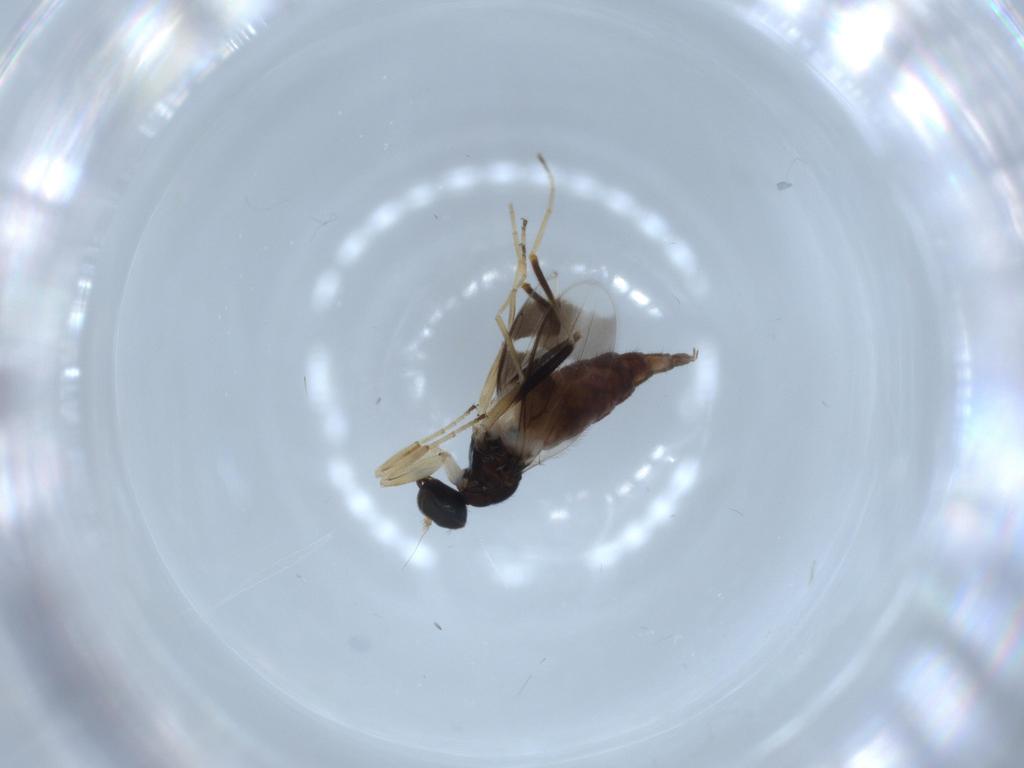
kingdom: Animalia
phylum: Arthropoda
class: Insecta
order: Diptera
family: Hybotidae
